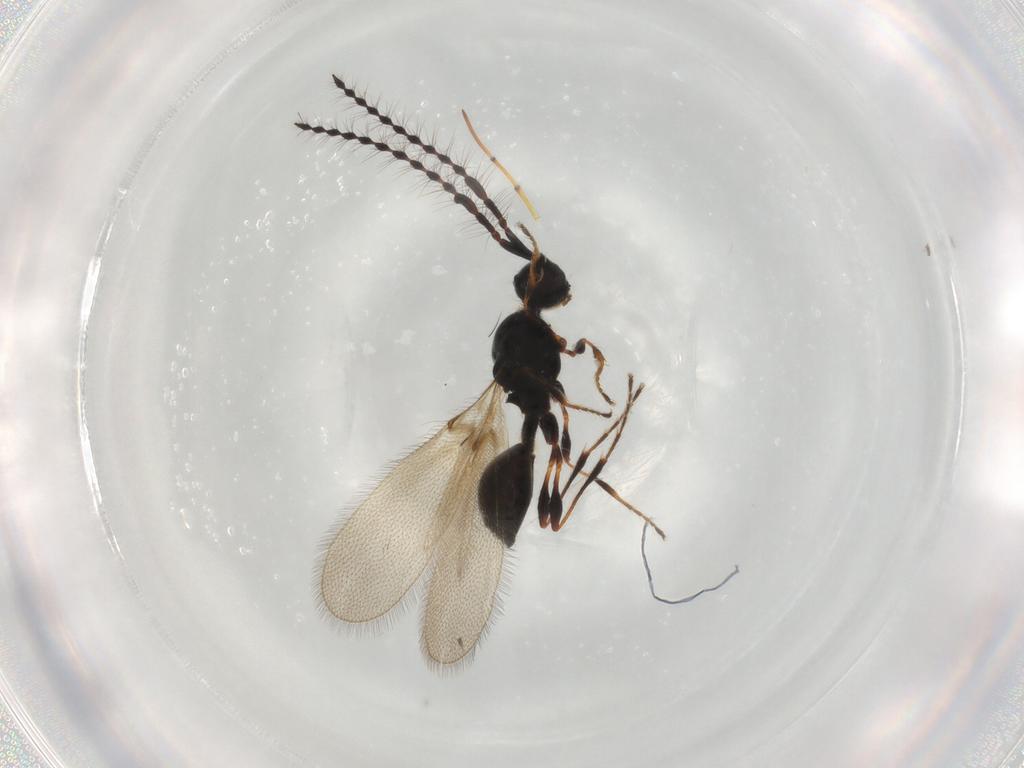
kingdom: Animalia
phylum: Arthropoda
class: Insecta
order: Hymenoptera
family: Diapriidae
